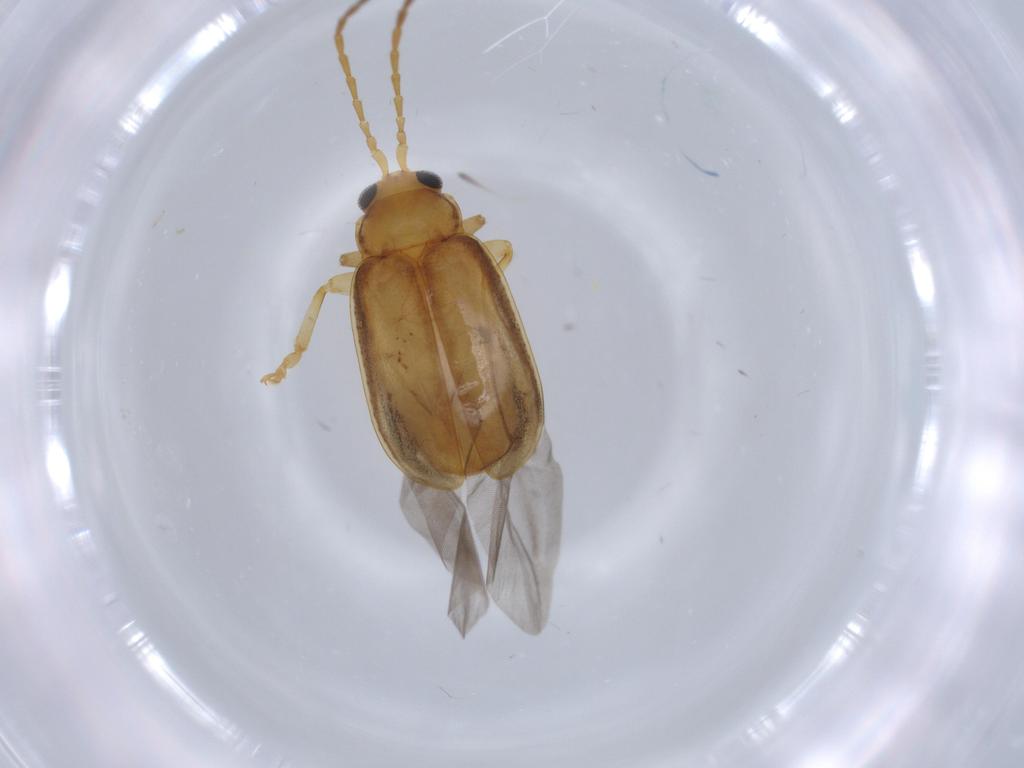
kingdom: Animalia
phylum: Arthropoda
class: Insecta
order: Coleoptera
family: Chrysomelidae
